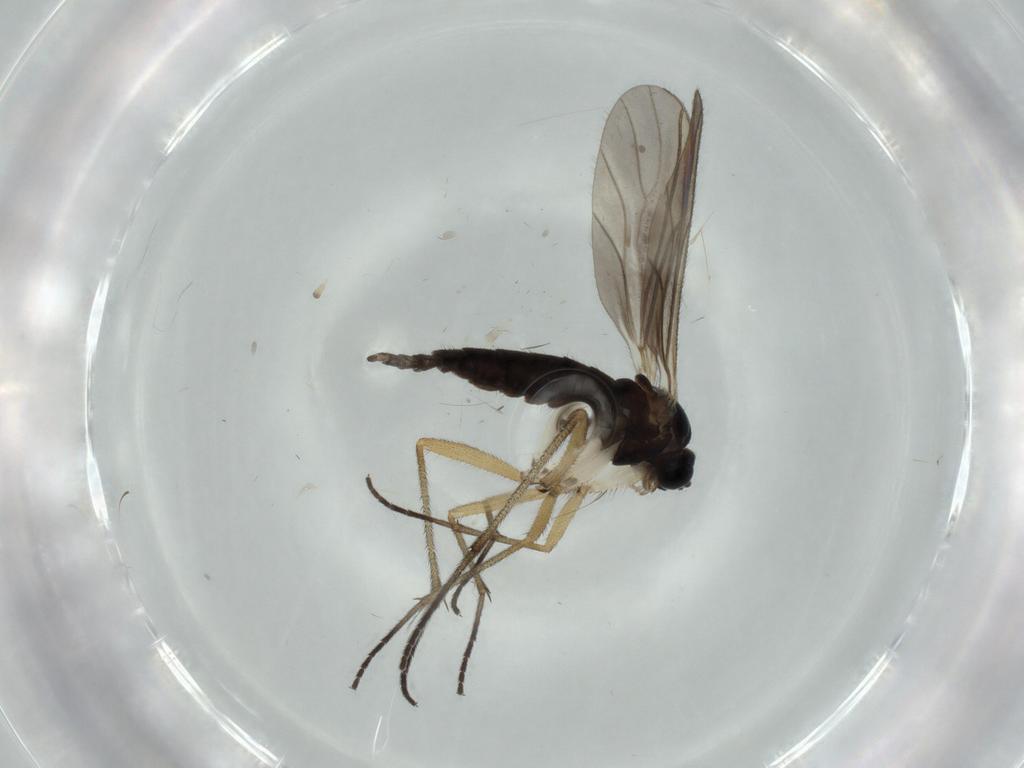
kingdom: Animalia
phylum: Arthropoda
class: Insecta
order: Diptera
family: Sciaridae
